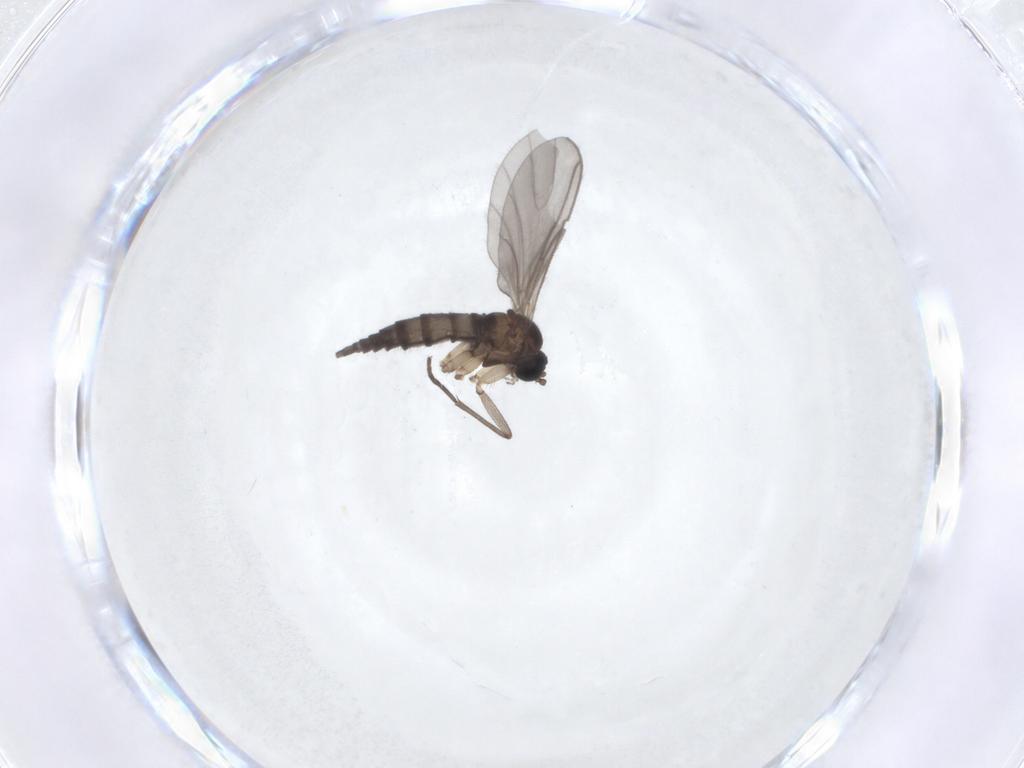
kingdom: Animalia
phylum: Arthropoda
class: Insecta
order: Diptera
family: Sciaridae
